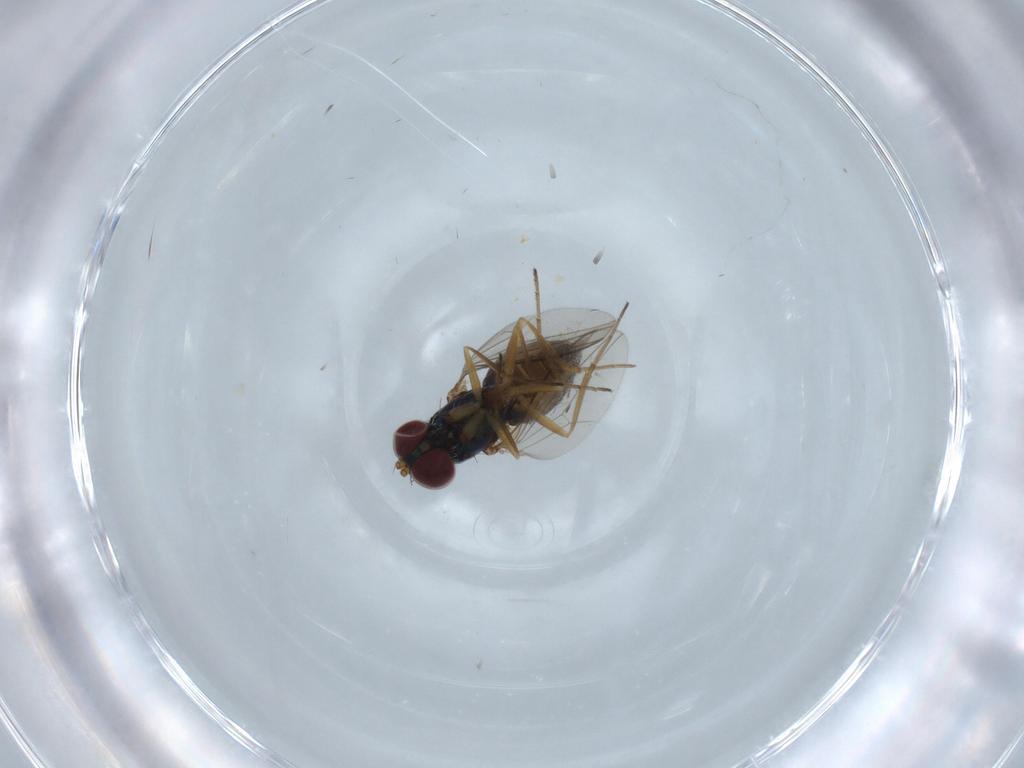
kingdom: Animalia
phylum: Arthropoda
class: Insecta
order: Diptera
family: Dolichopodidae
